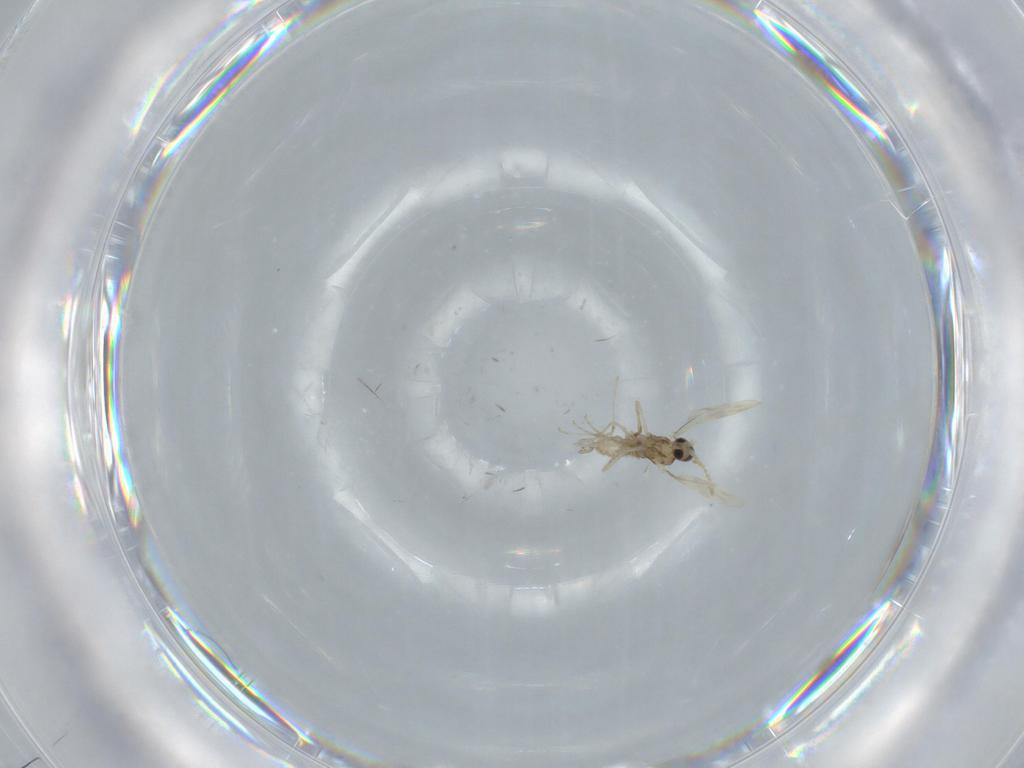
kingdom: Animalia
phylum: Arthropoda
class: Insecta
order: Diptera
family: Phoridae
